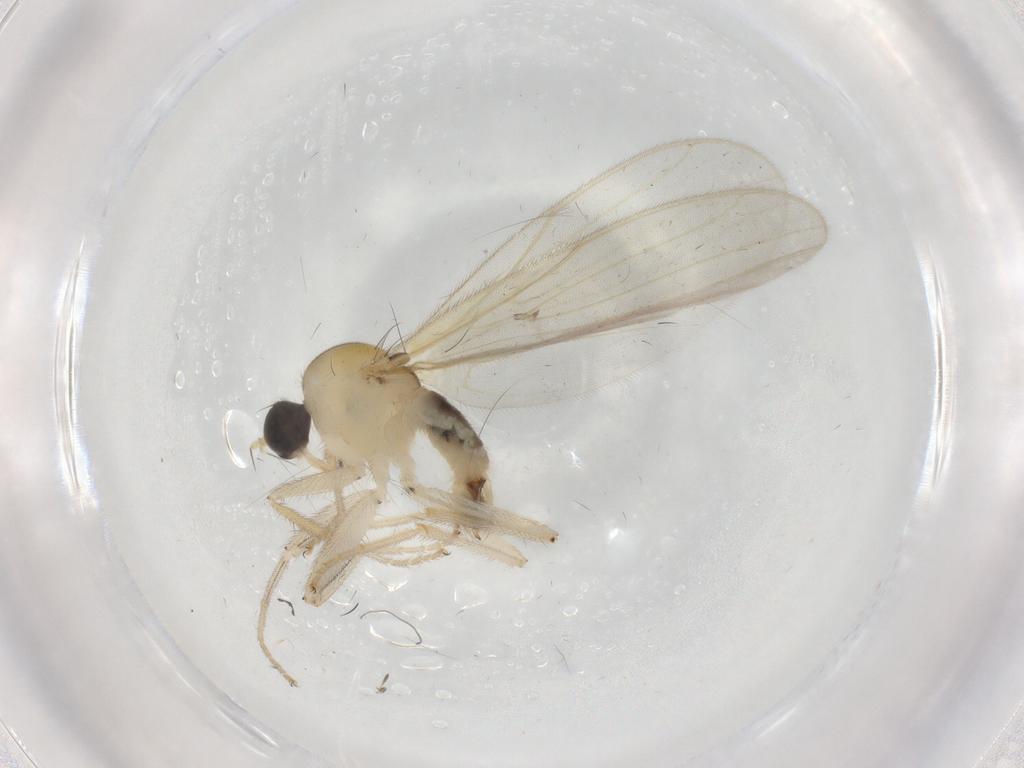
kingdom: Animalia
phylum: Arthropoda
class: Insecta
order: Diptera
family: Hybotidae
